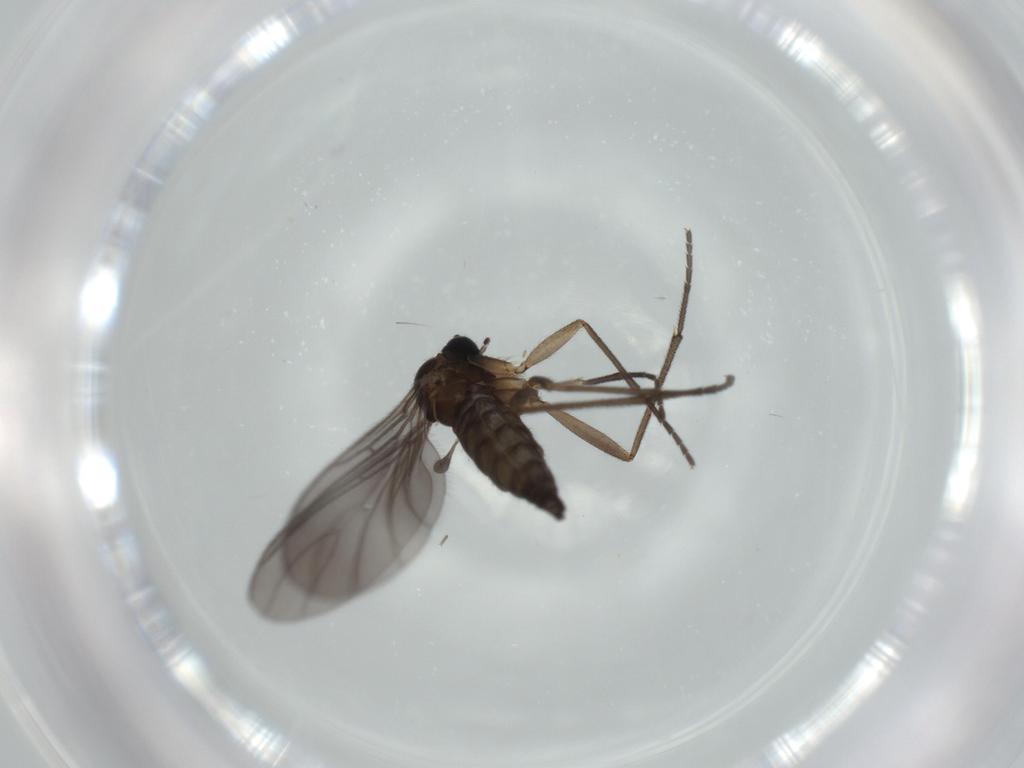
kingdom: Animalia
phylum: Arthropoda
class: Insecta
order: Diptera
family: Sciaridae
